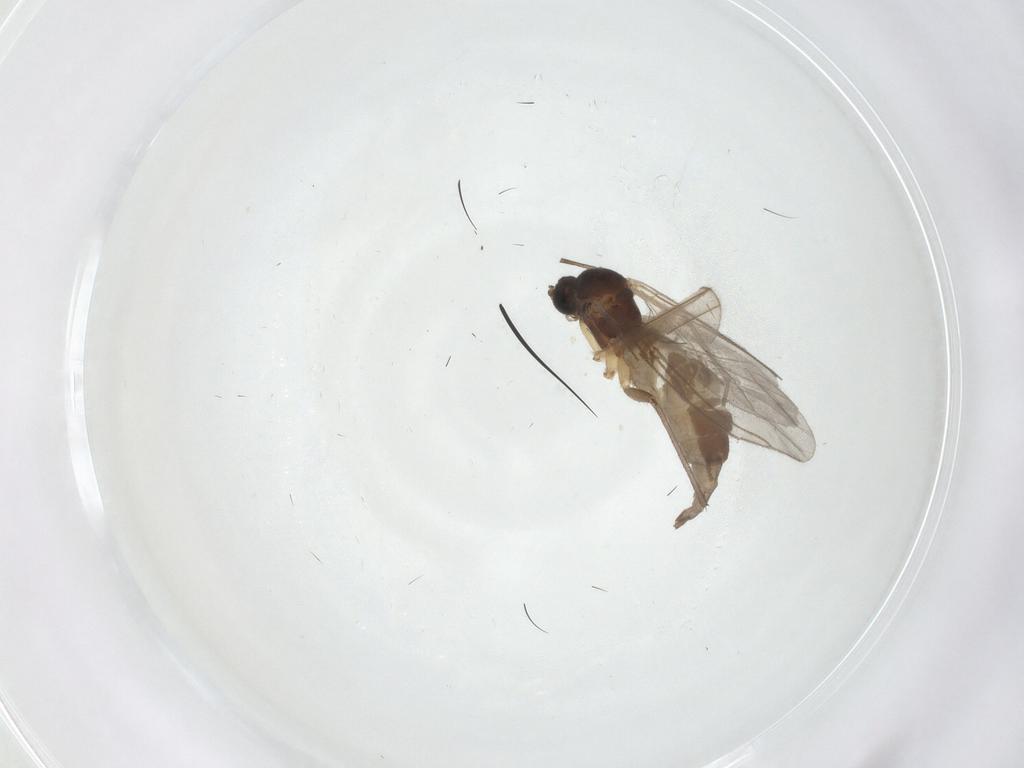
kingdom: Animalia
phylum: Arthropoda
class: Insecta
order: Diptera
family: Sciaridae
